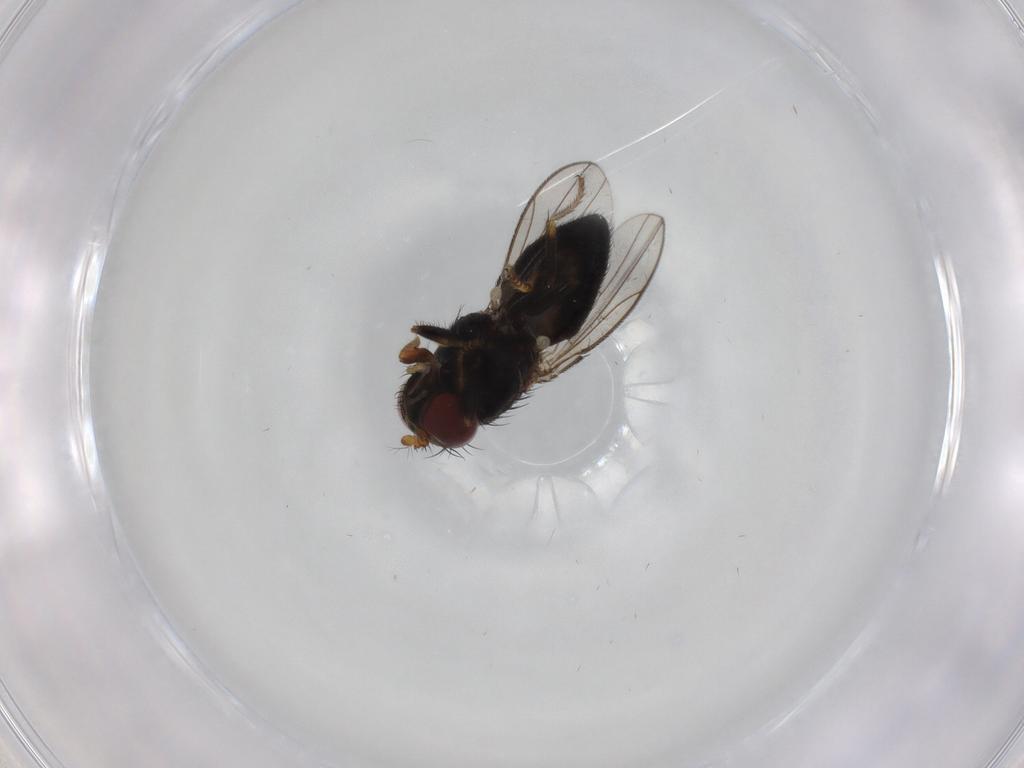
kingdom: Animalia
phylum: Arthropoda
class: Insecta
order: Diptera
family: Ephydridae
